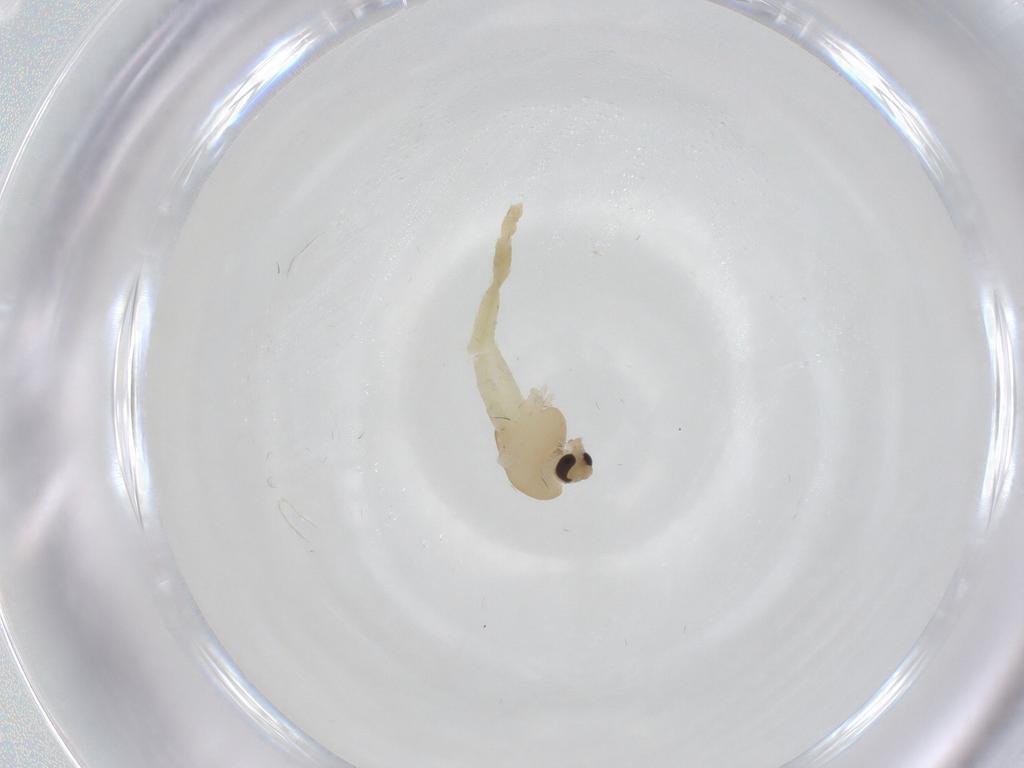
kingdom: Animalia
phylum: Arthropoda
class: Insecta
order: Diptera
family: Chironomidae
